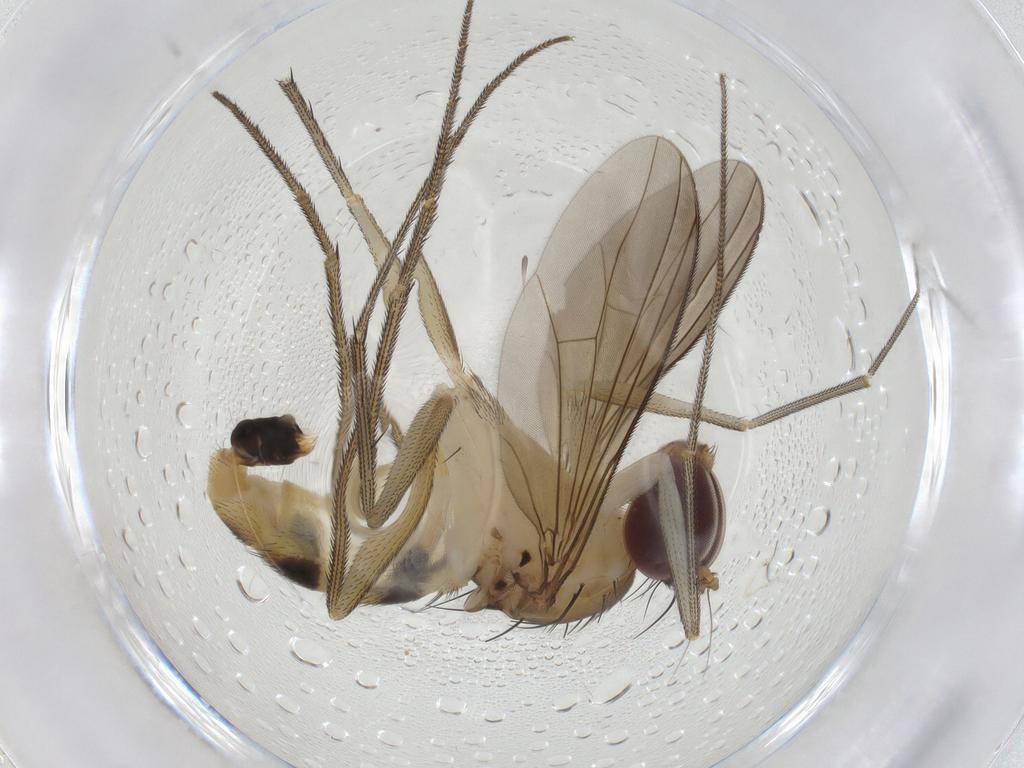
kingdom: Animalia
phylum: Arthropoda
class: Insecta
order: Diptera
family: Dolichopodidae
